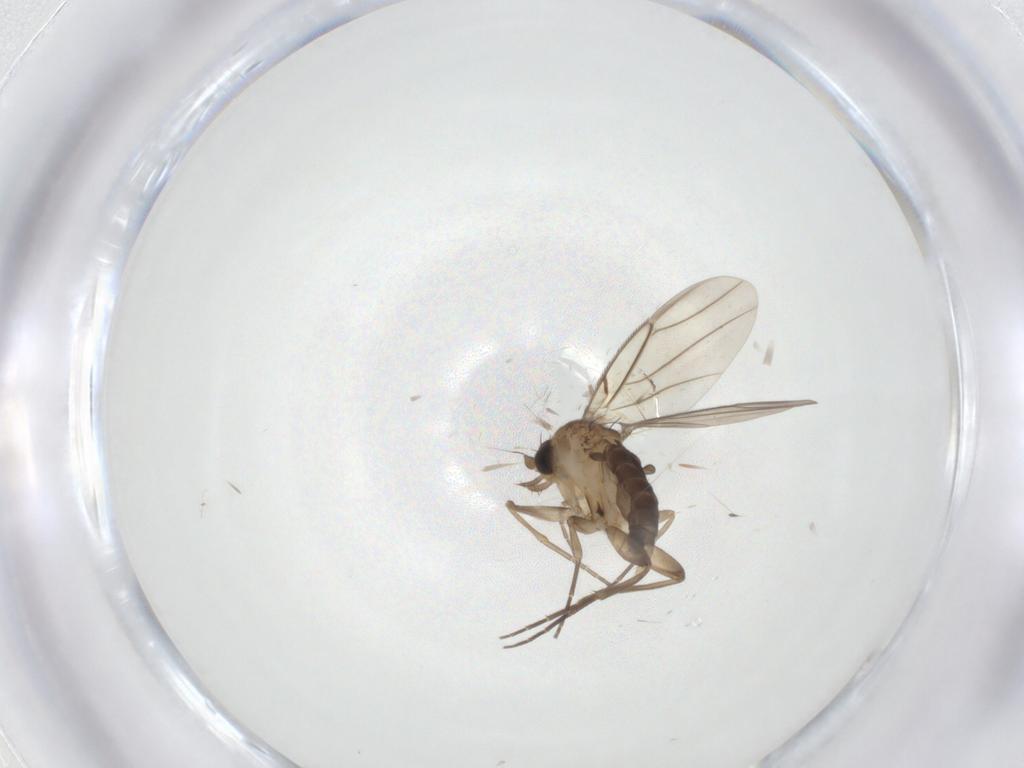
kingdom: Animalia
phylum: Arthropoda
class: Insecta
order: Diptera
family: Phoridae
